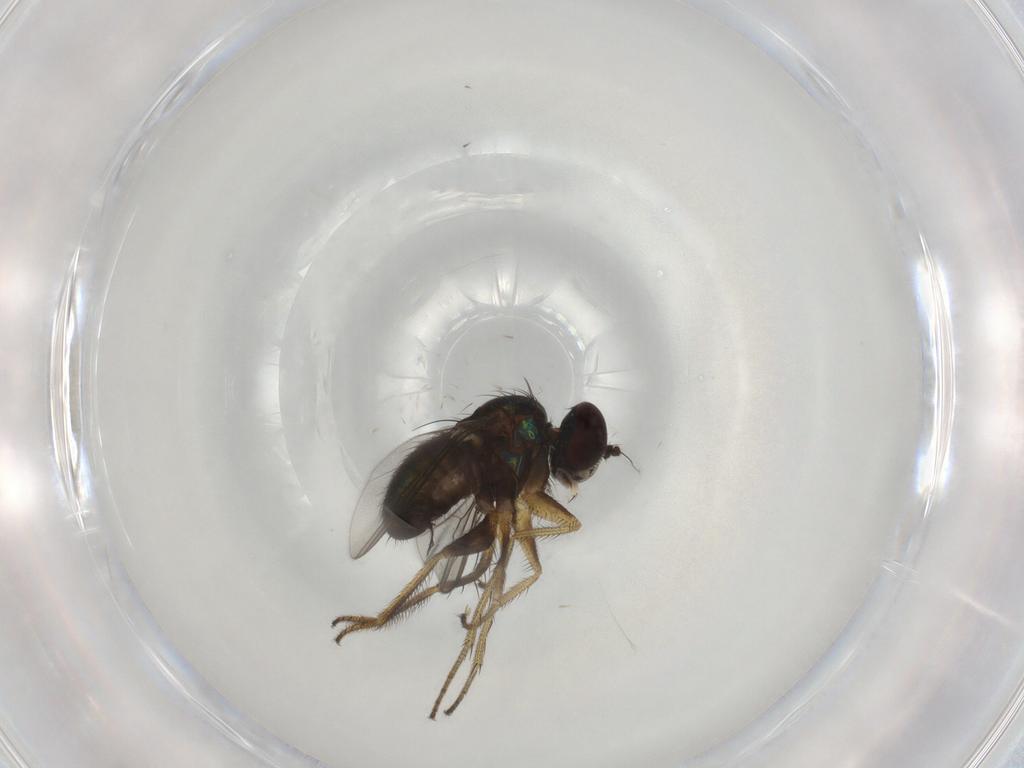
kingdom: Animalia
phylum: Arthropoda
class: Insecta
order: Diptera
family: Dolichopodidae
